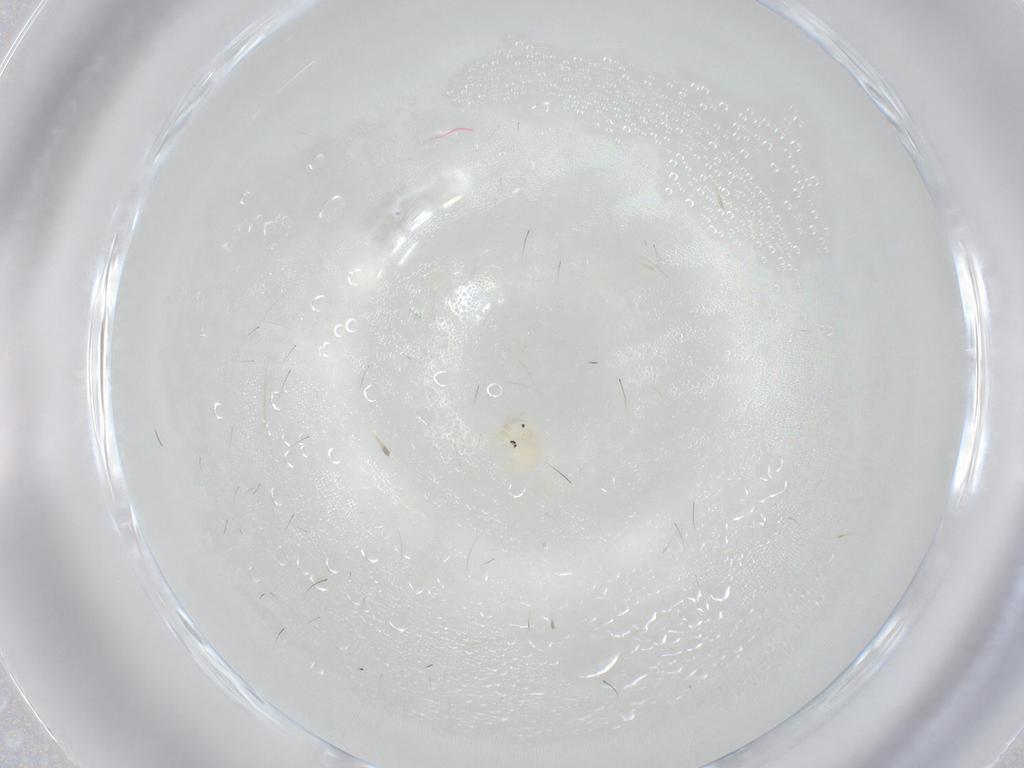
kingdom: Animalia
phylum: Arthropoda
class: Arachnida
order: Trombidiformes
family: Arrenuridae
